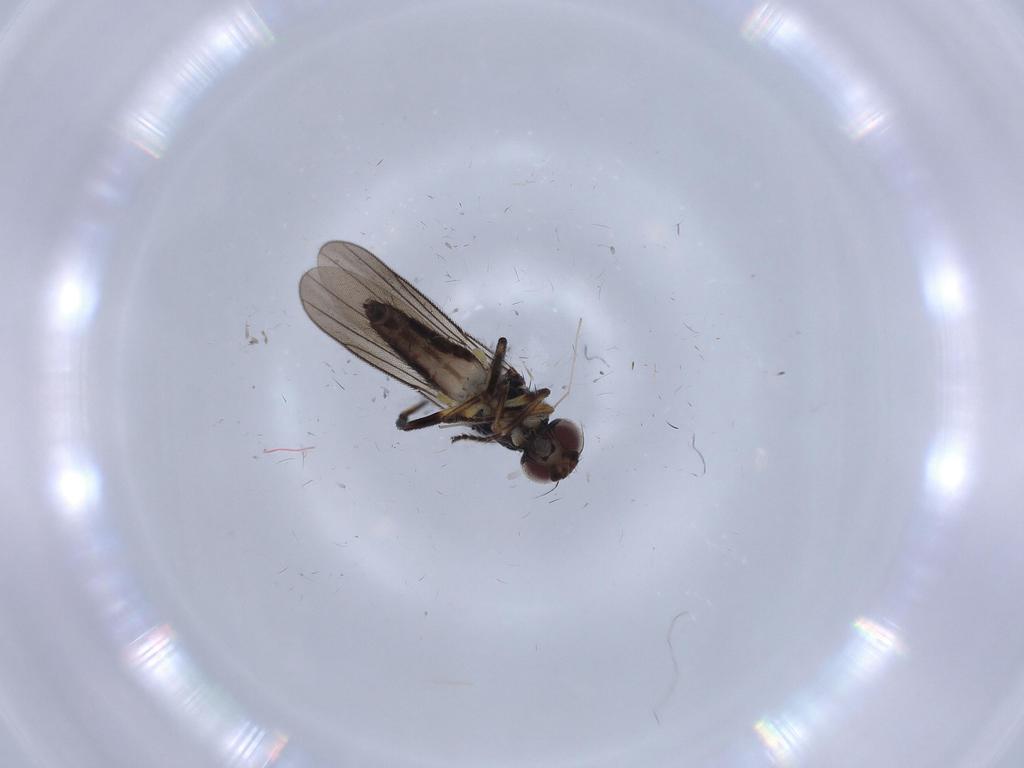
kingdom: Animalia
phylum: Arthropoda
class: Insecta
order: Diptera
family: Chloropidae
